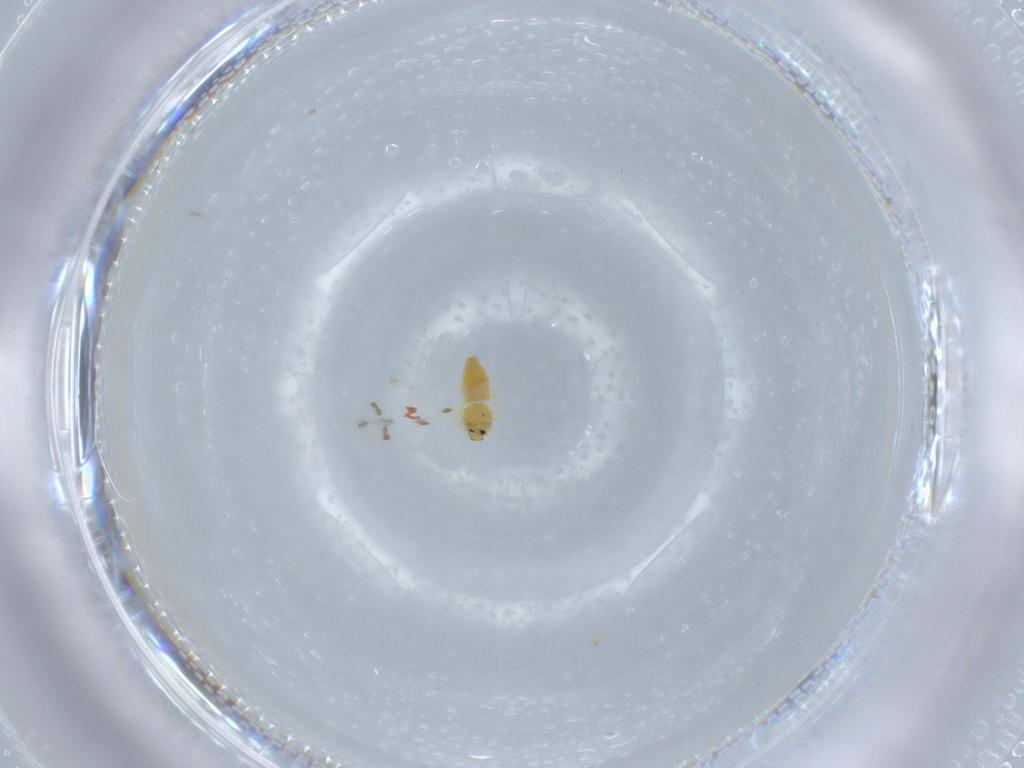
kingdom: Animalia
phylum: Arthropoda
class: Insecta
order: Hemiptera
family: Aleyrodidae
